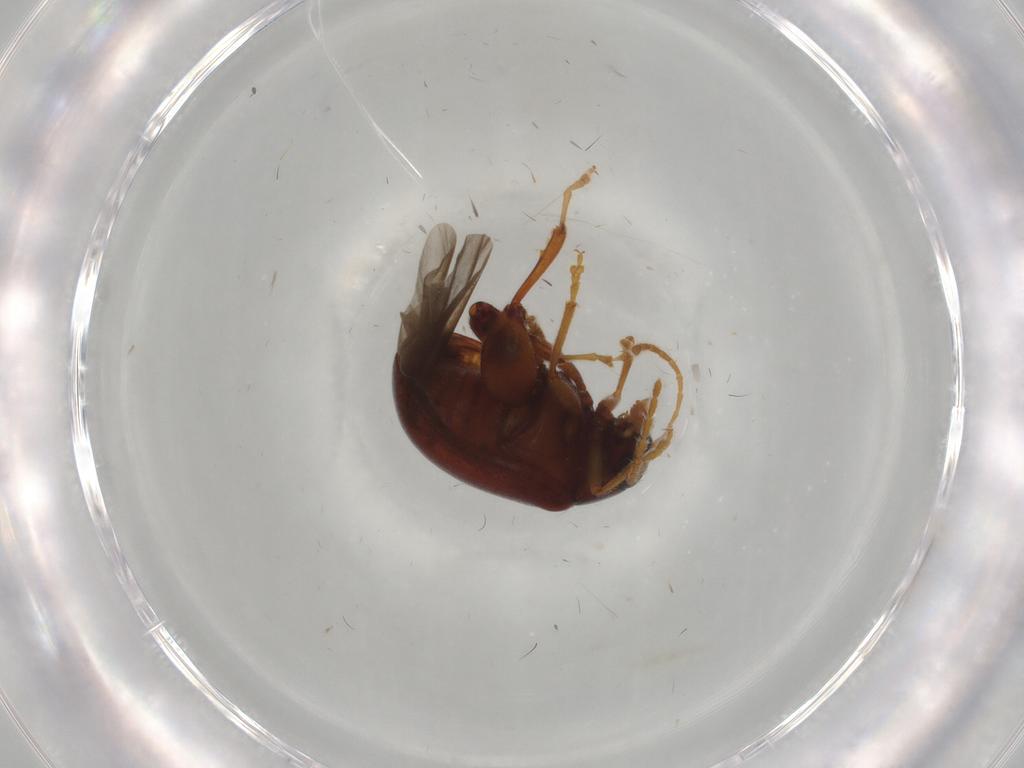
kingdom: Animalia
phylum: Arthropoda
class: Insecta
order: Coleoptera
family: Chrysomelidae
